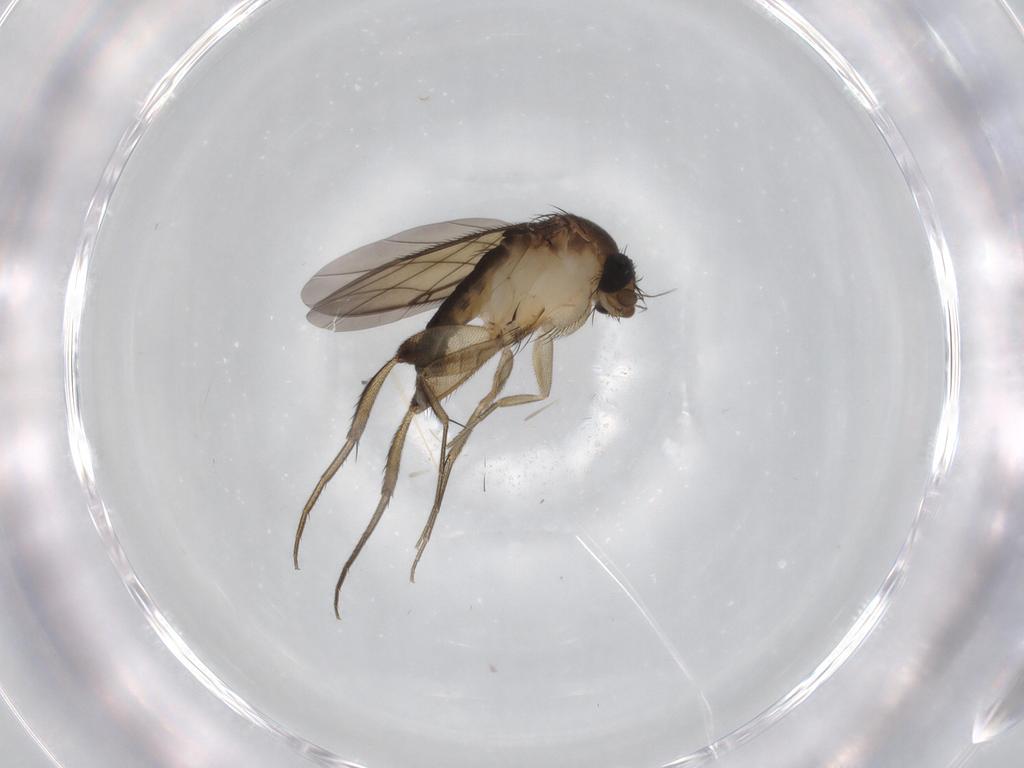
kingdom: Animalia
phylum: Arthropoda
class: Insecta
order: Diptera
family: Phoridae
